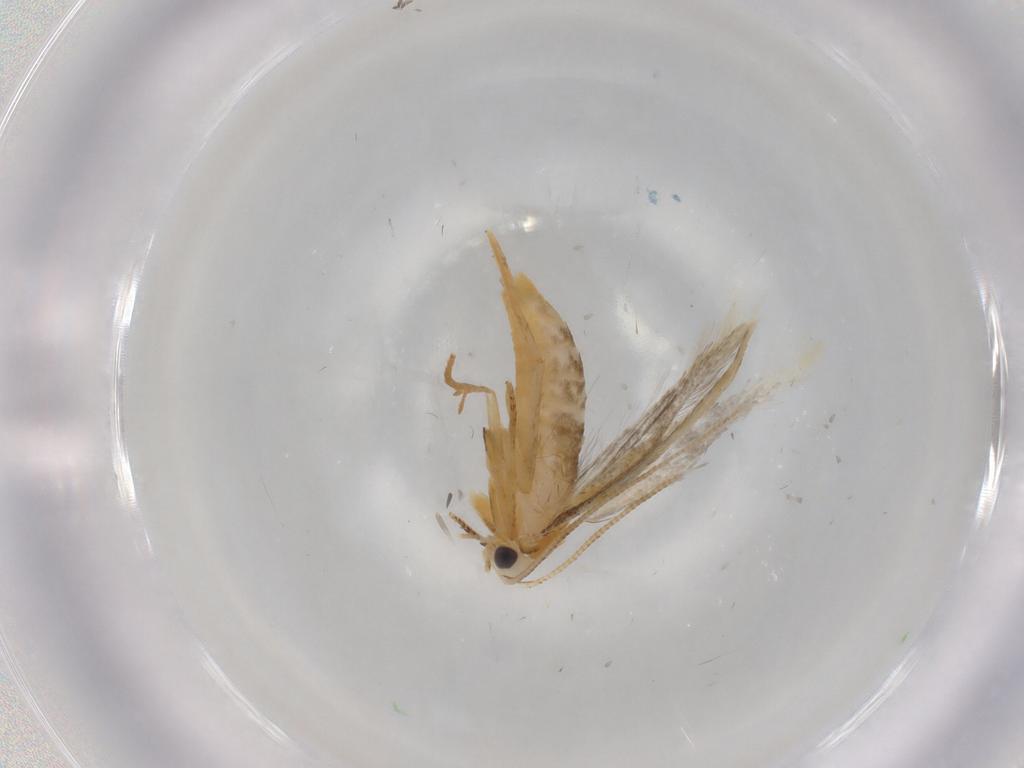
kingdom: Animalia
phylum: Arthropoda
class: Insecta
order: Lepidoptera
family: Tineidae
